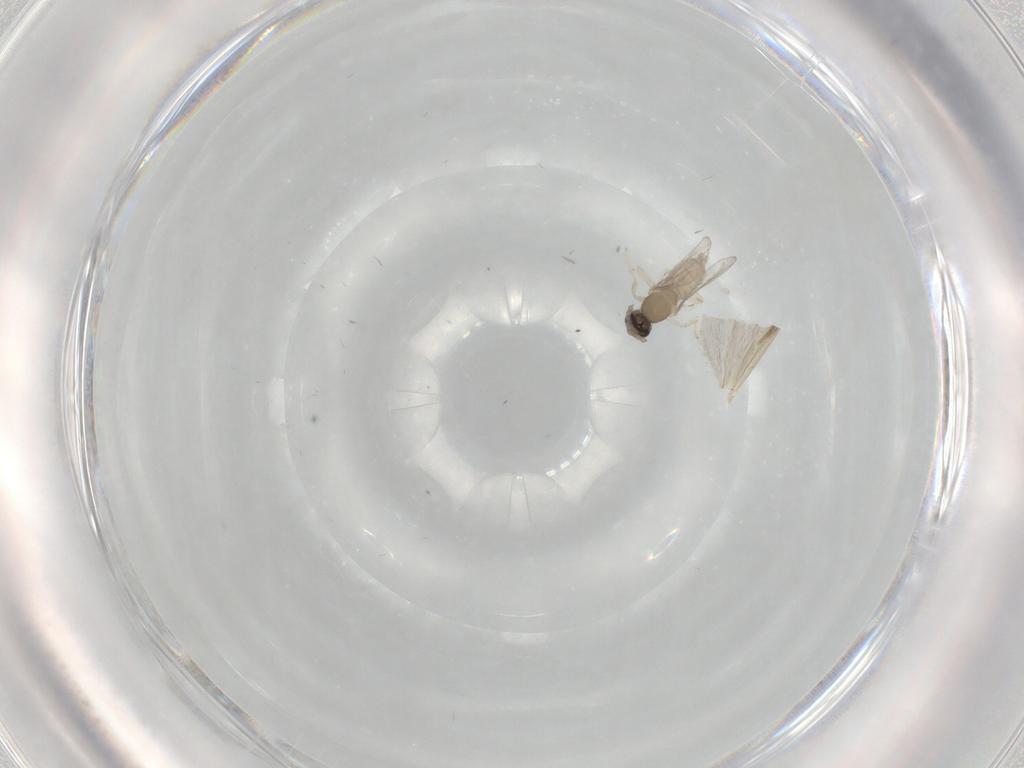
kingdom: Animalia
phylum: Arthropoda
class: Insecta
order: Diptera
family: Cecidomyiidae
